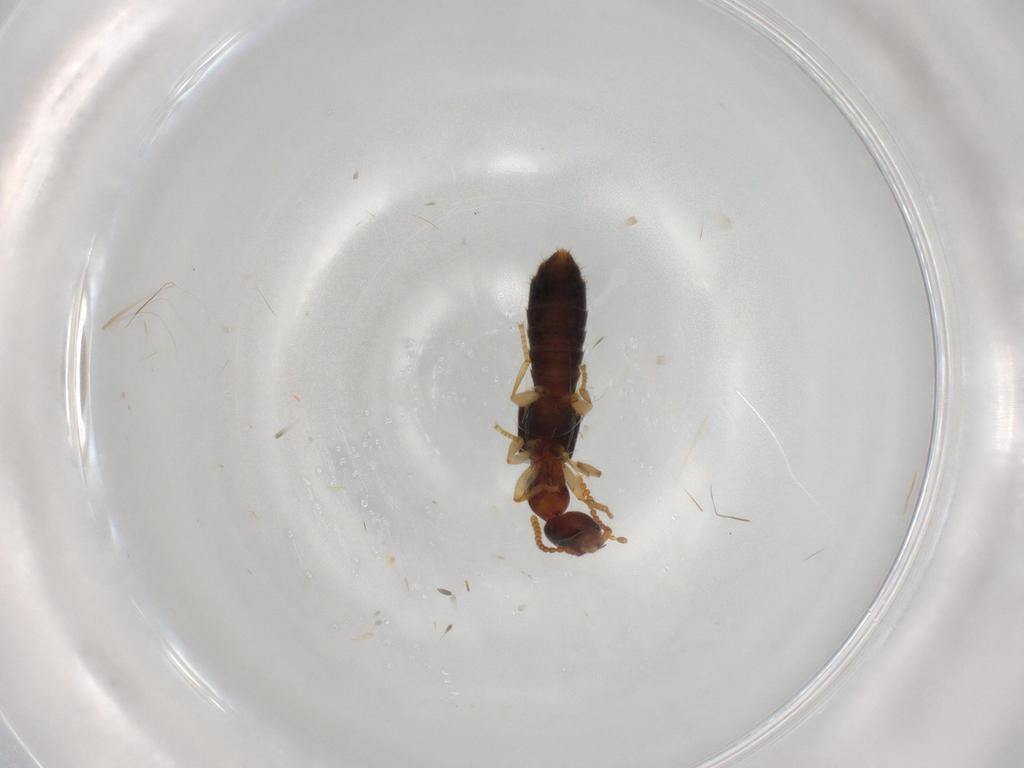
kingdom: Animalia
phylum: Arthropoda
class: Insecta
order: Coleoptera
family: Staphylinidae
